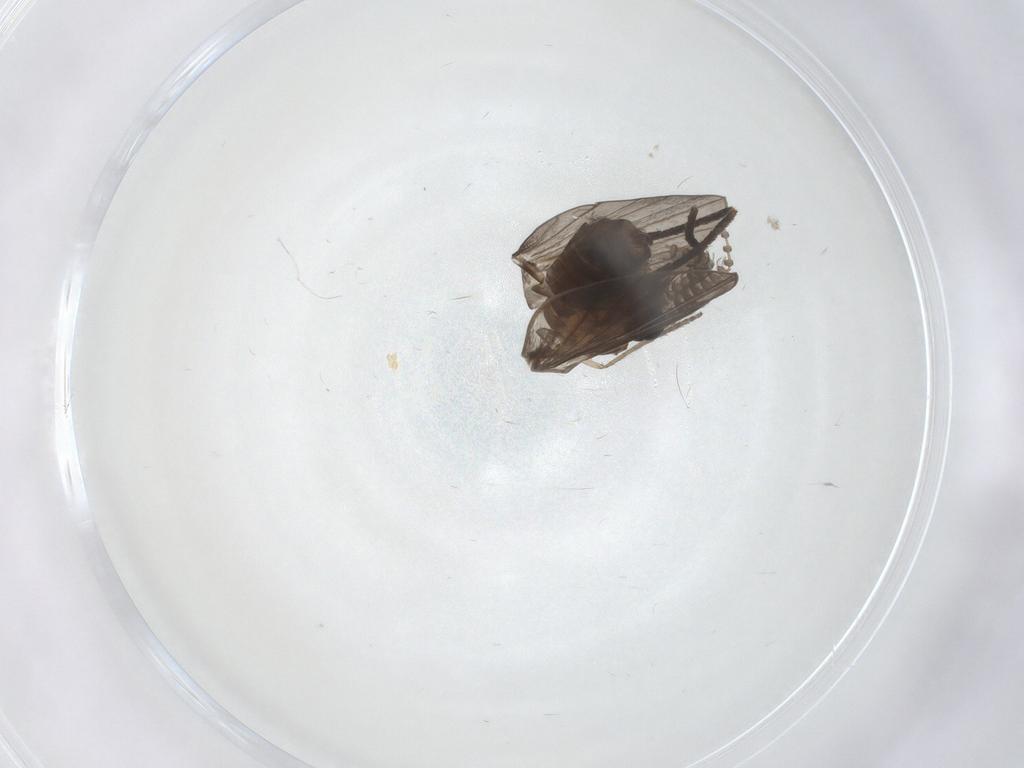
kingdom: Animalia
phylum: Arthropoda
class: Insecta
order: Diptera
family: Psychodidae
